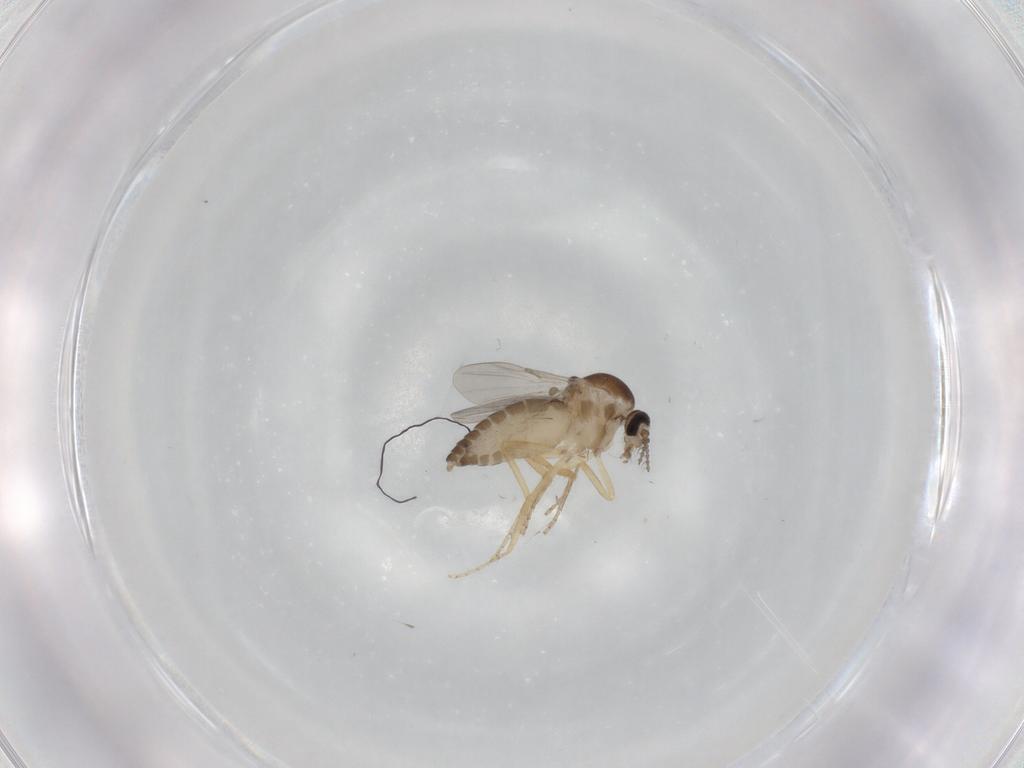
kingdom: Animalia
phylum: Arthropoda
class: Insecta
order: Diptera
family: Ceratopogonidae
